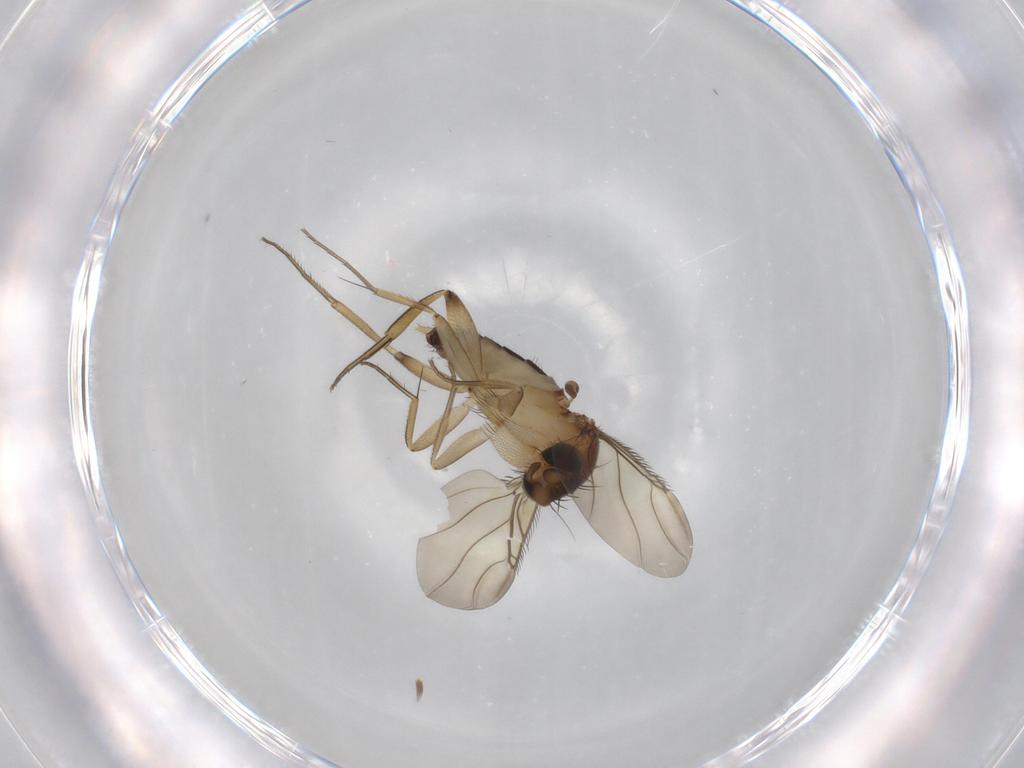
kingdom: Animalia
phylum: Arthropoda
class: Insecta
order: Diptera
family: Phoridae
